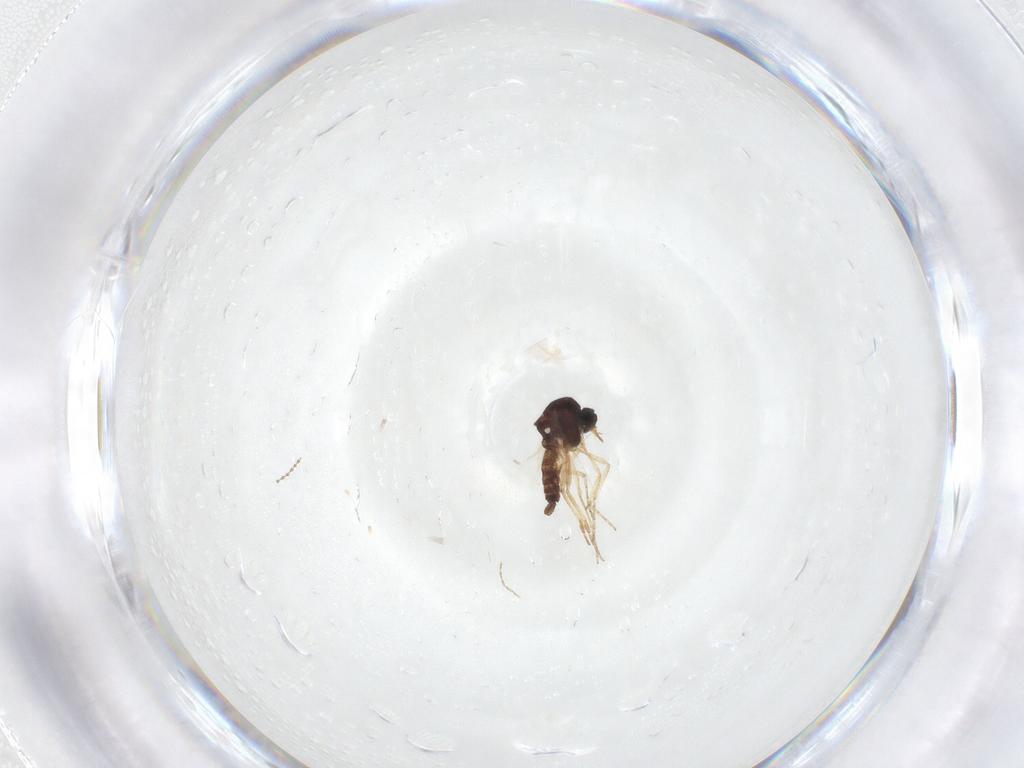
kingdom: Animalia
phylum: Arthropoda
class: Insecta
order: Diptera
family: Ceratopogonidae
